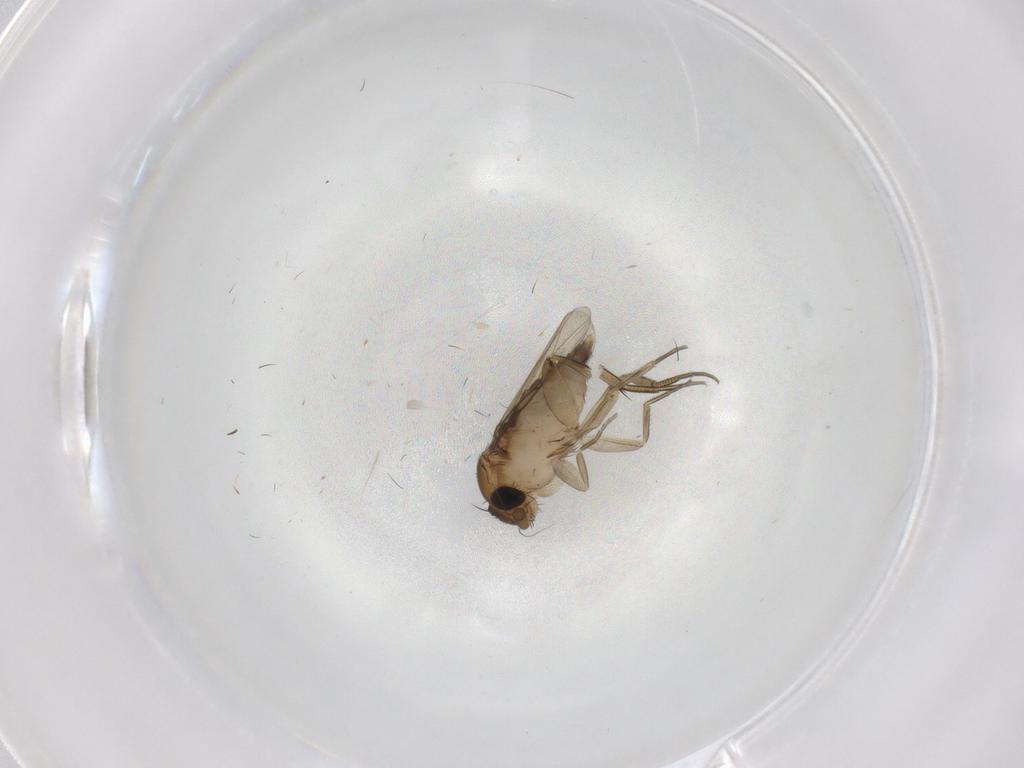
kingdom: Animalia
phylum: Arthropoda
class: Insecta
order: Diptera
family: Phoridae
